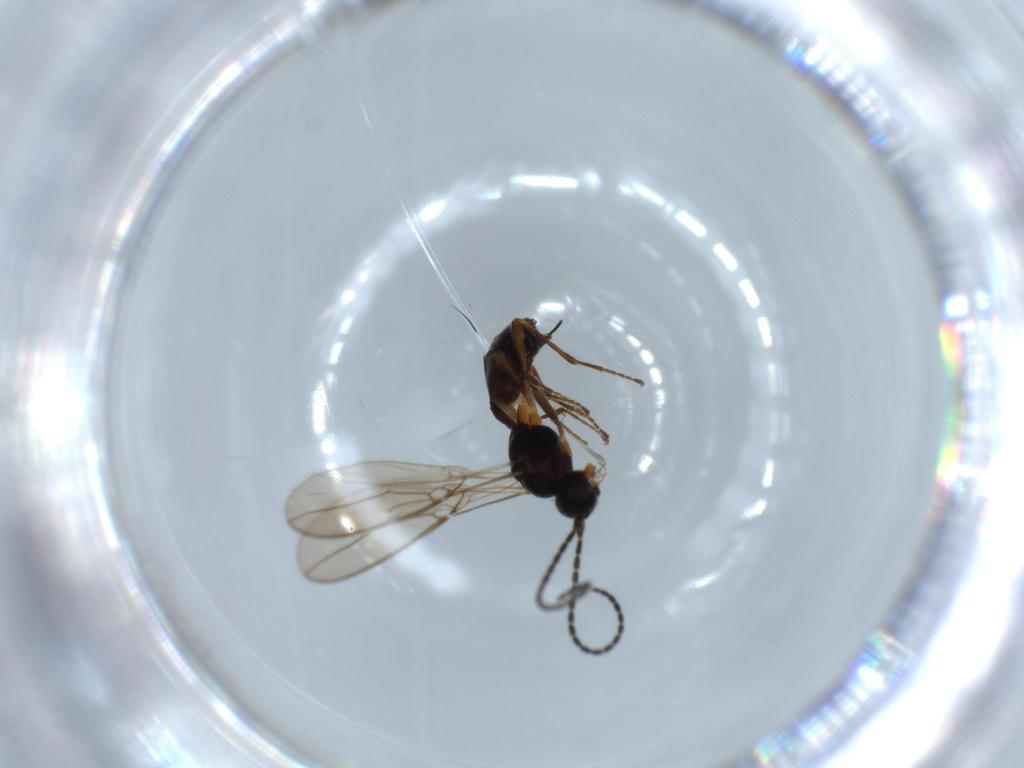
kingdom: Animalia
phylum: Arthropoda
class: Insecta
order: Hymenoptera
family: Braconidae
